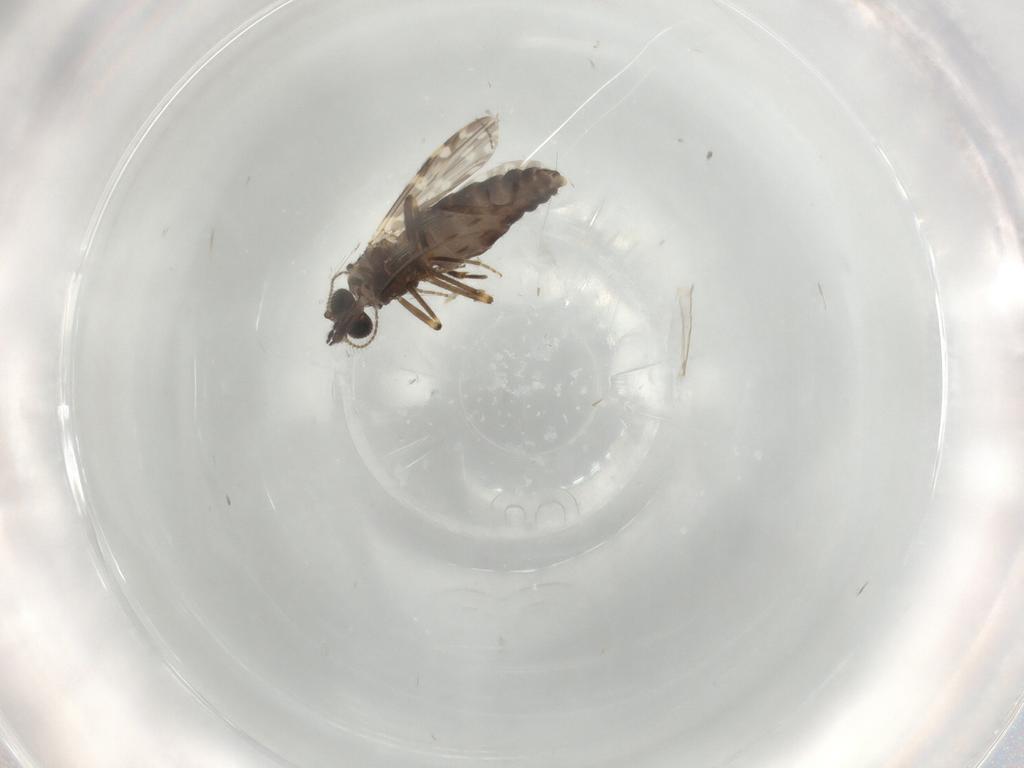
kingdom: Animalia
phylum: Arthropoda
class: Insecta
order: Diptera
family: Ceratopogonidae
